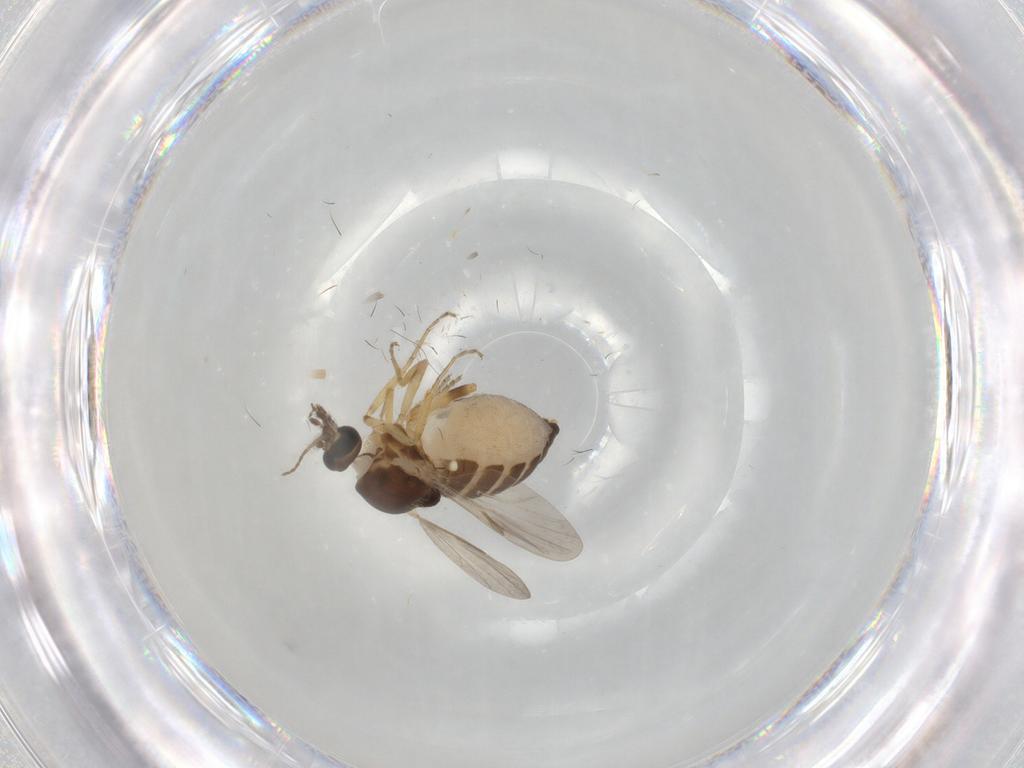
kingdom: Animalia
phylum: Arthropoda
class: Insecta
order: Diptera
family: Ceratopogonidae
